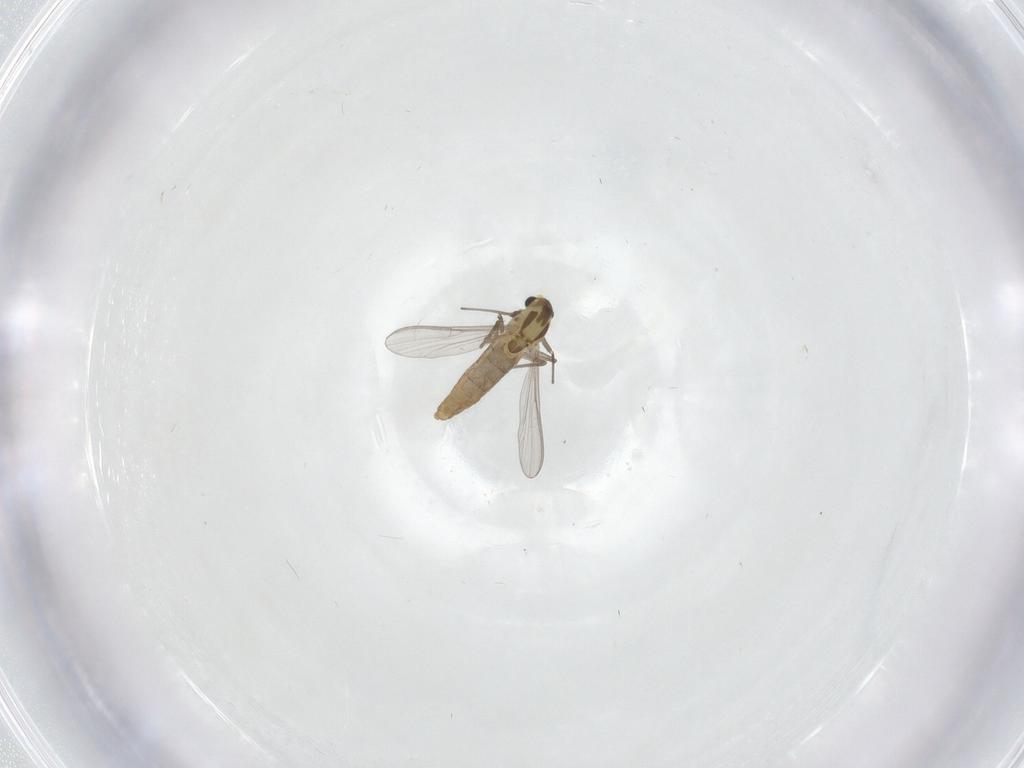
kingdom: Animalia
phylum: Arthropoda
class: Insecta
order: Diptera
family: Chironomidae
